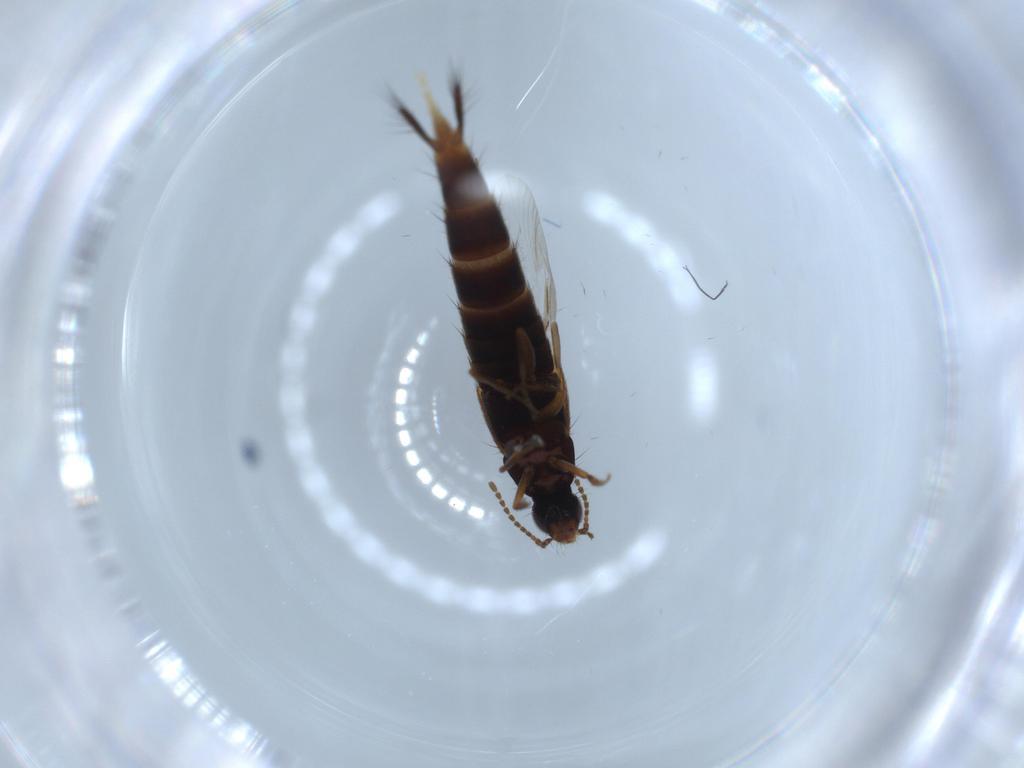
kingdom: Animalia
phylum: Arthropoda
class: Insecta
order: Coleoptera
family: Staphylinidae
